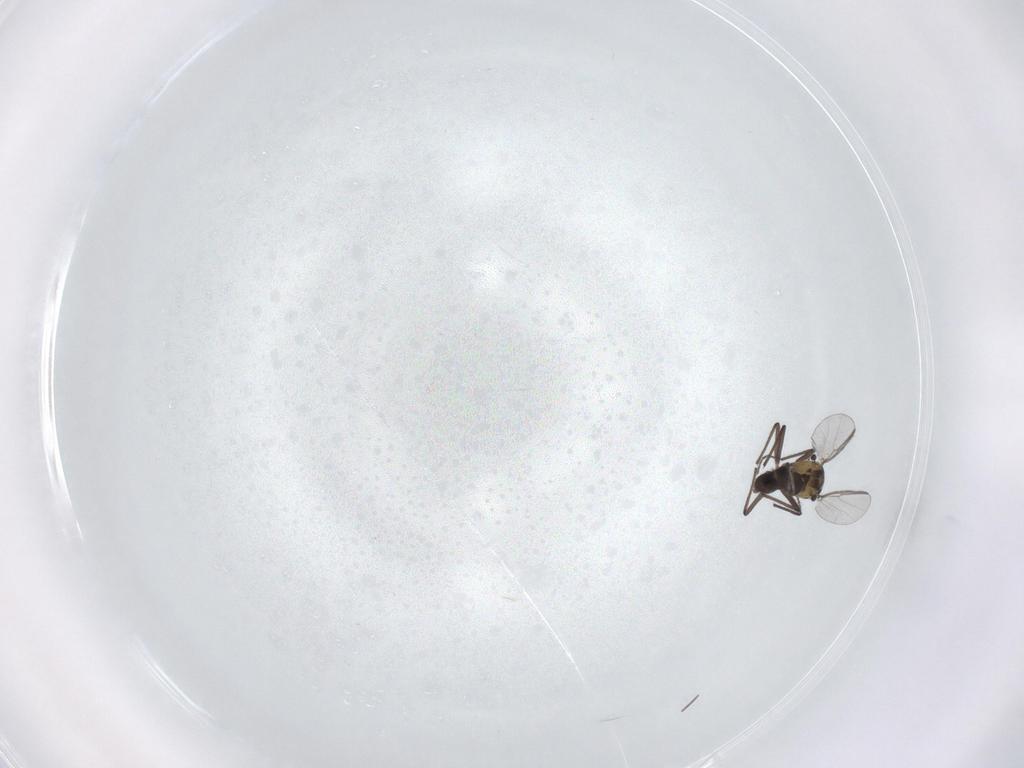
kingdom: Animalia
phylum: Arthropoda
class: Insecta
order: Diptera
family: Chironomidae
